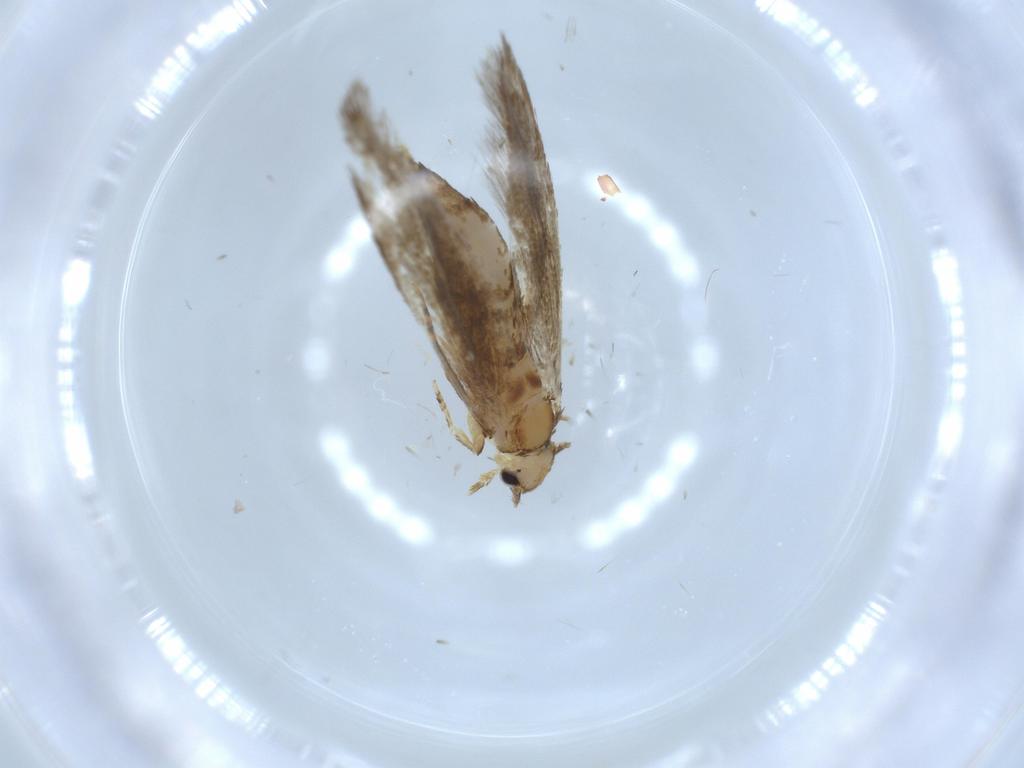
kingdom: Animalia
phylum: Arthropoda
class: Insecta
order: Lepidoptera
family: Tineidae
